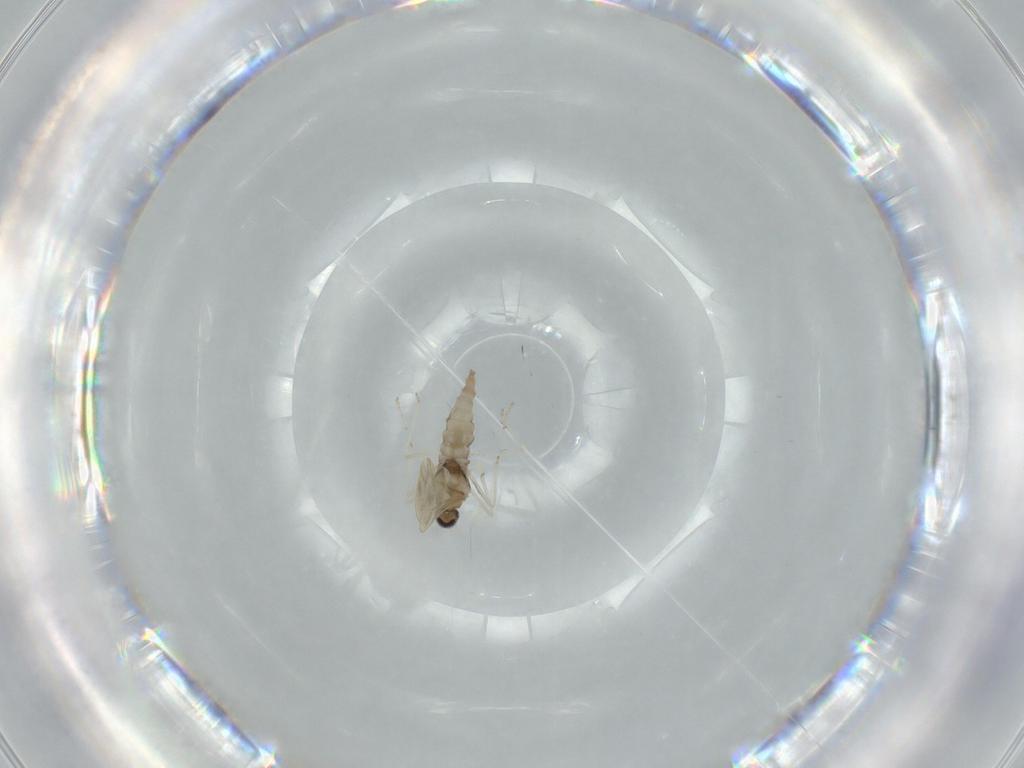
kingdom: Animalia
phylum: Arthropoda
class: Insecta
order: Diptera
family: Cecidomyiidae
